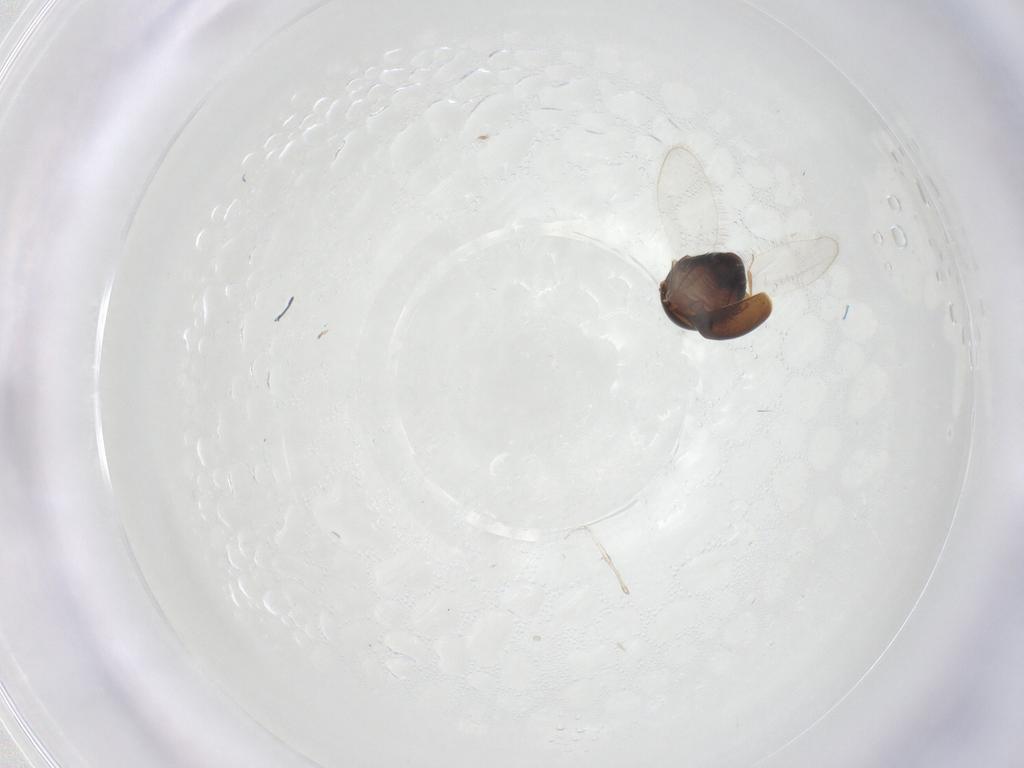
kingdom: Animalia
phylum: Arthropoda
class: Insecta
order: Coleoptera
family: Corylophidae
